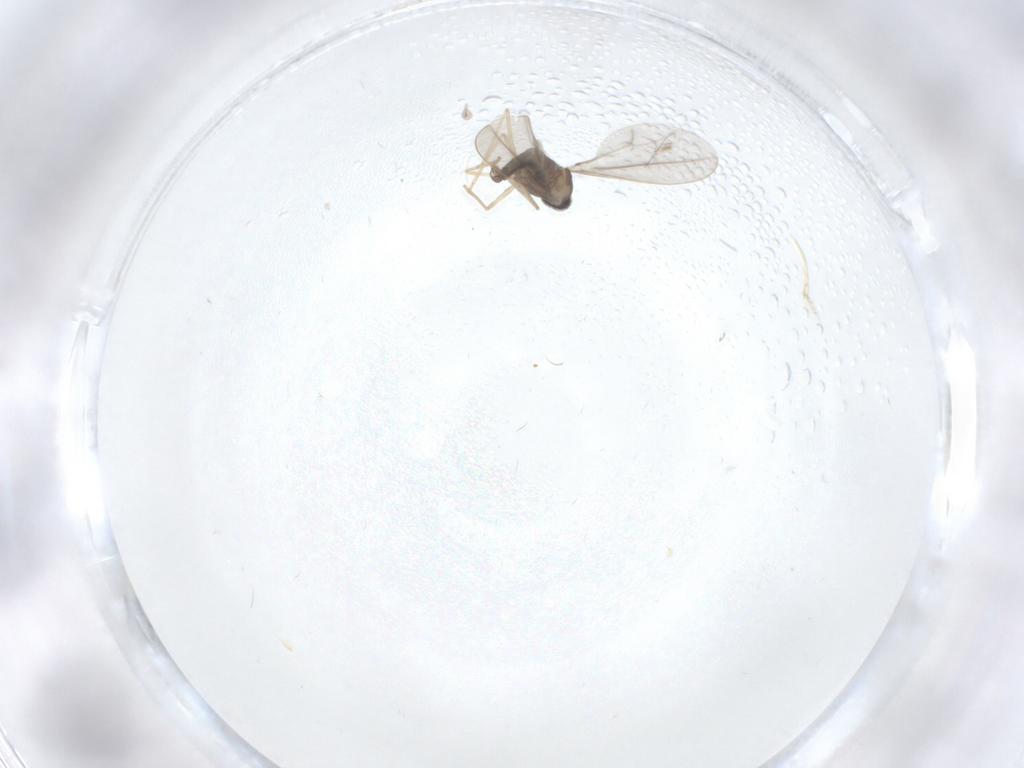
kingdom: Animalia
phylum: Arthropoda
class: Insecta
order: Diptera
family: Chironomidae
